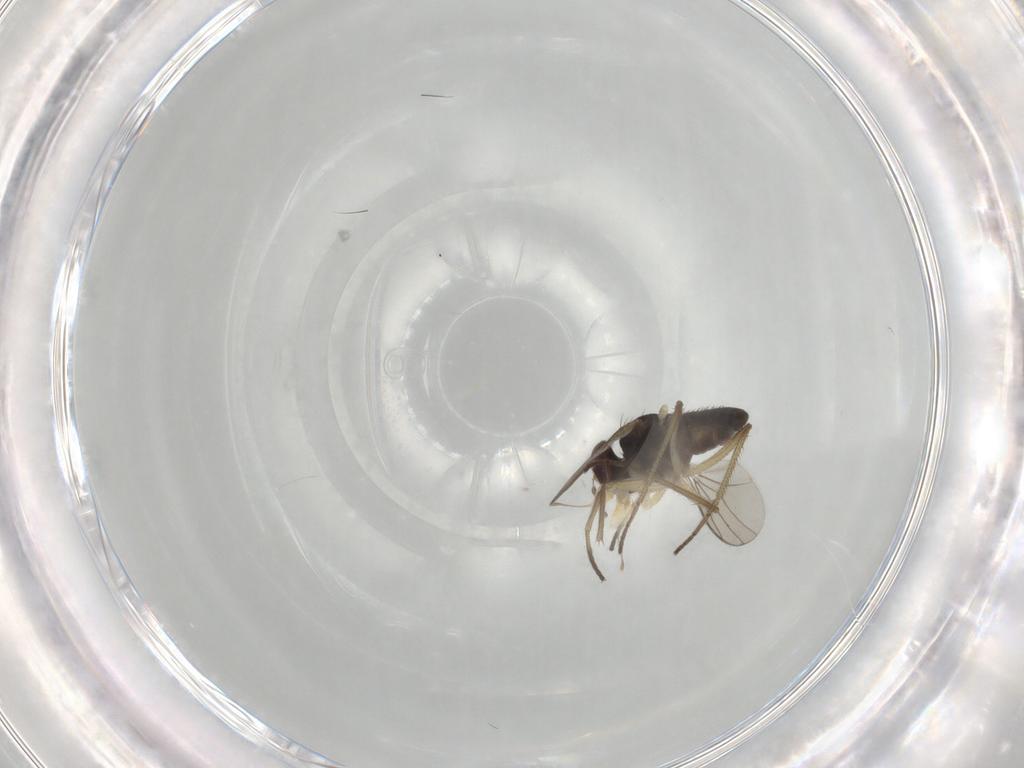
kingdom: Animalia
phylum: Arthropoda
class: Insecta
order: Diptera
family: Dolichopodidae
